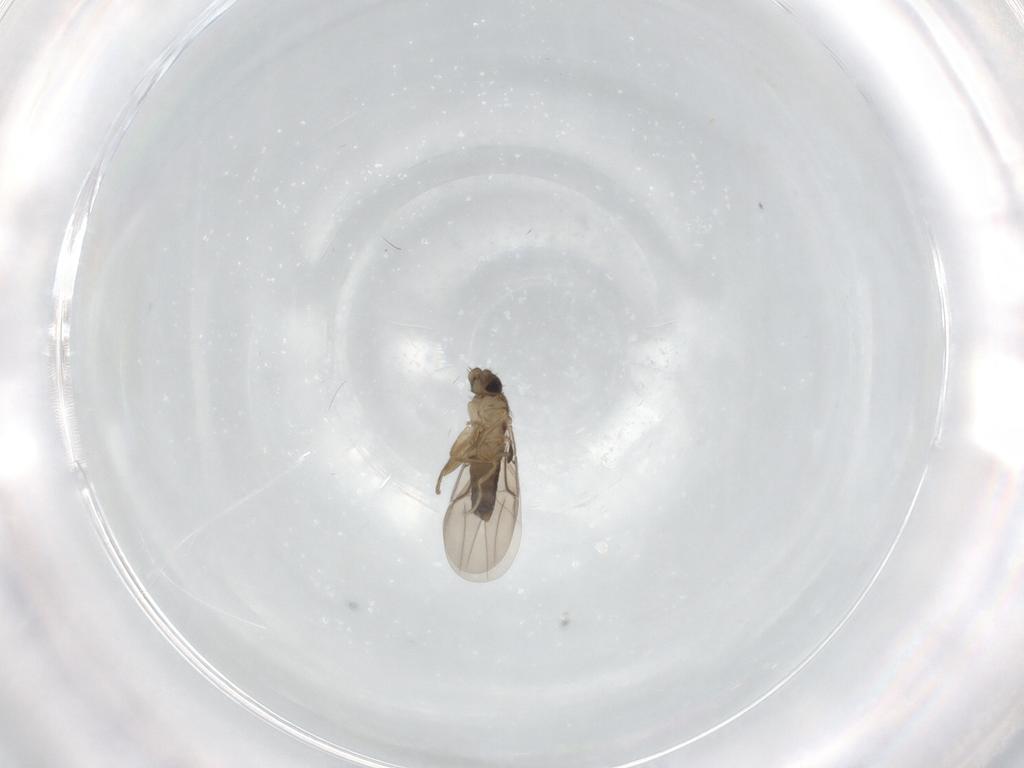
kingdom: Animalia
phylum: Arthropoda
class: Insecta
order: Diptera
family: Phoridae
